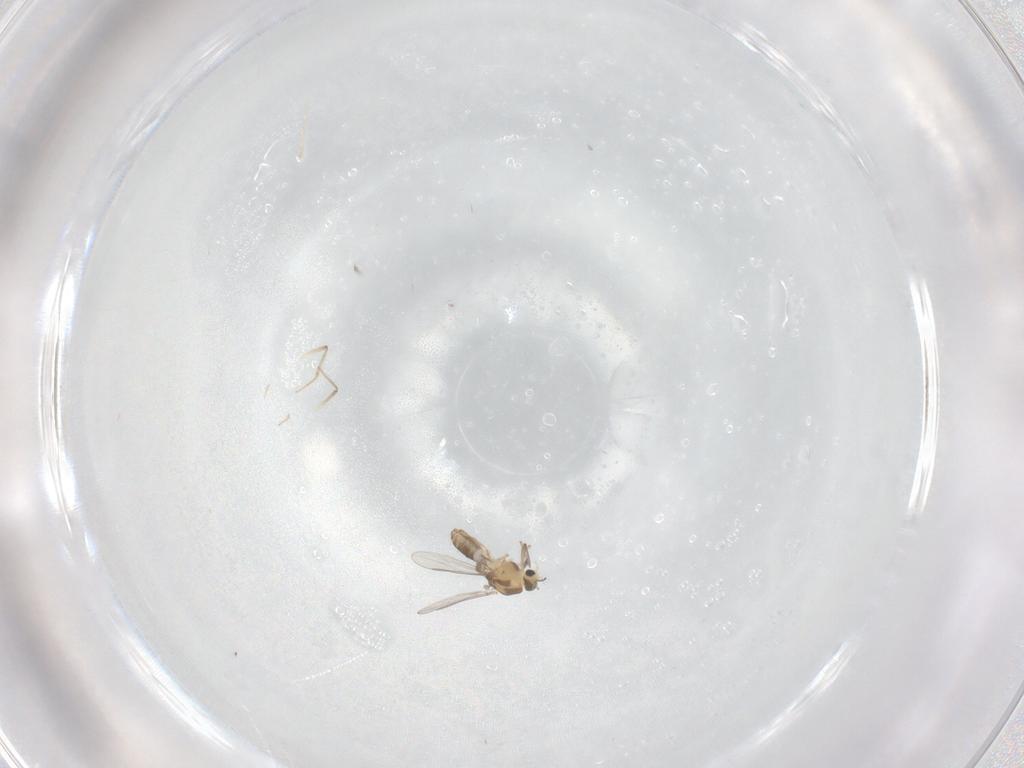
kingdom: Animalia
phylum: Arthropoda
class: Insecta
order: Diptera
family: Chironomidae
